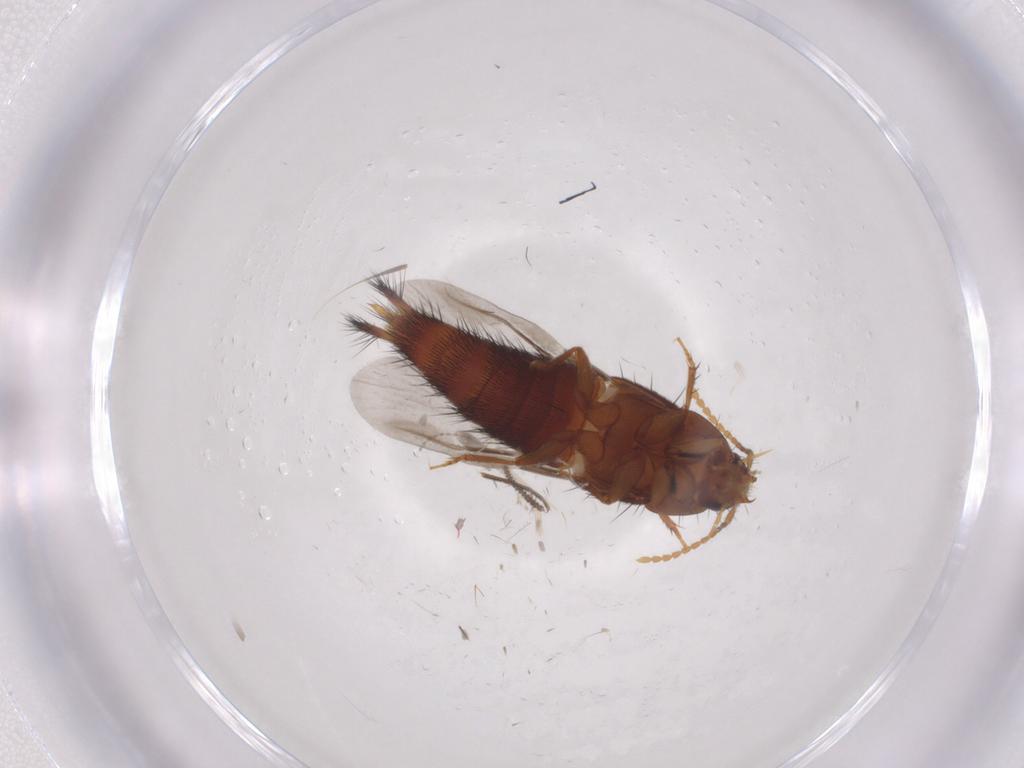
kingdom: Animalia
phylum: Arthropoda
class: Insecta
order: Coleoptera
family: Staphylinidae
